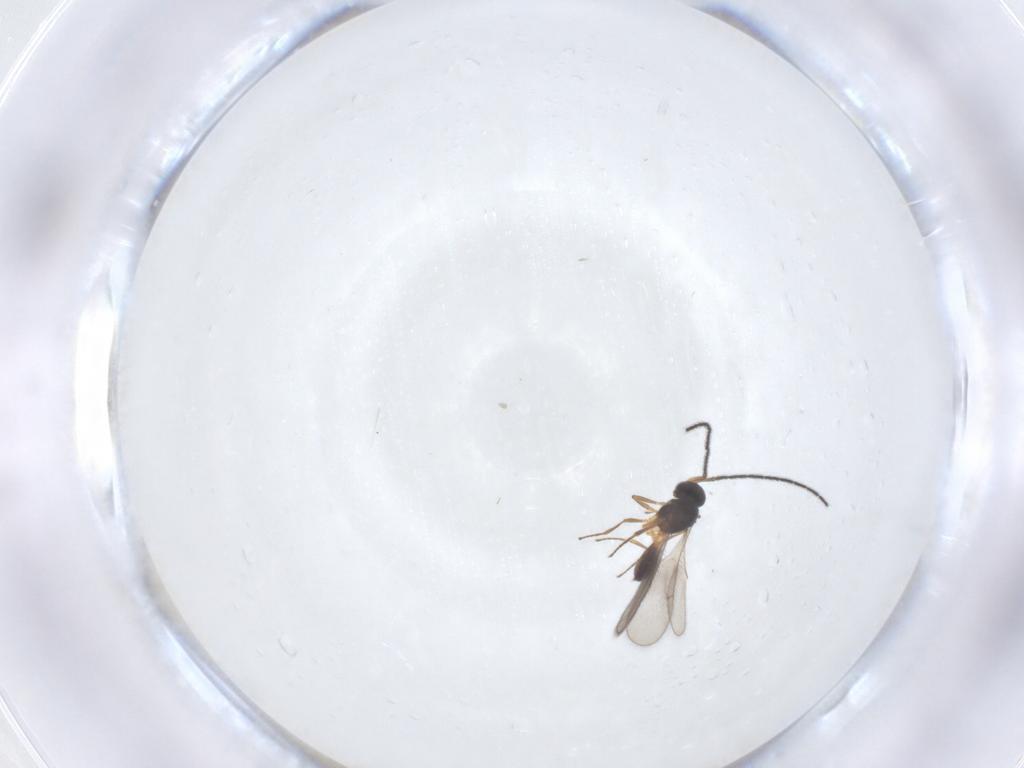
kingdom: Animalia
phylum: Arthropoda
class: Insecta
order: Hymenoptera
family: Scelionidae
